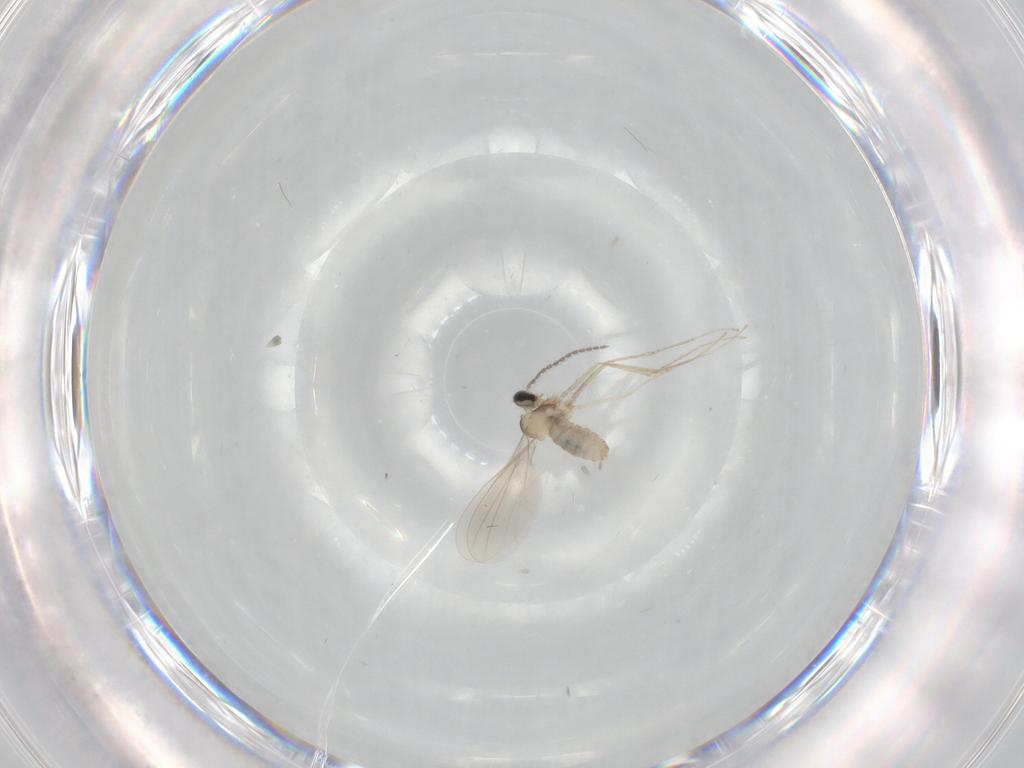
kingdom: Animalia
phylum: Arthropoda
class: Insecta
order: Diptera
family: Cecidomyiidae
